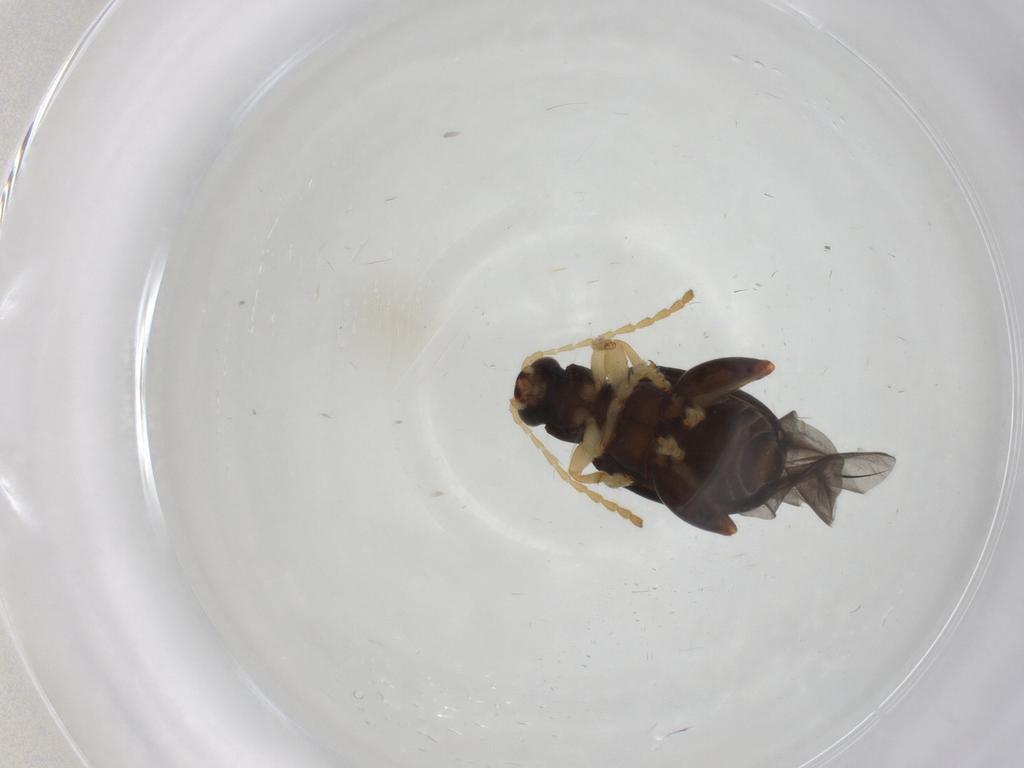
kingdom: Animalia
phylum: Arthropoda
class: Insecta
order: Coleoptera
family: Chrysomelidae
